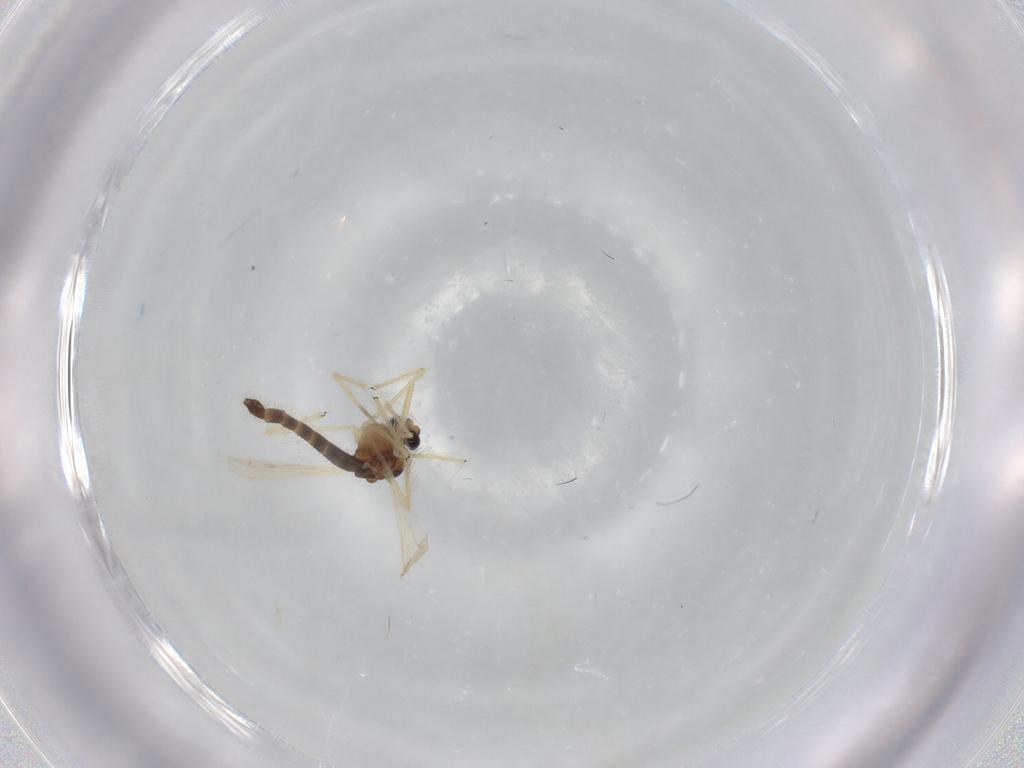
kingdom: Animalia
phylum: Arthropoda
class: Insecta
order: Diptera
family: Chironomidae
